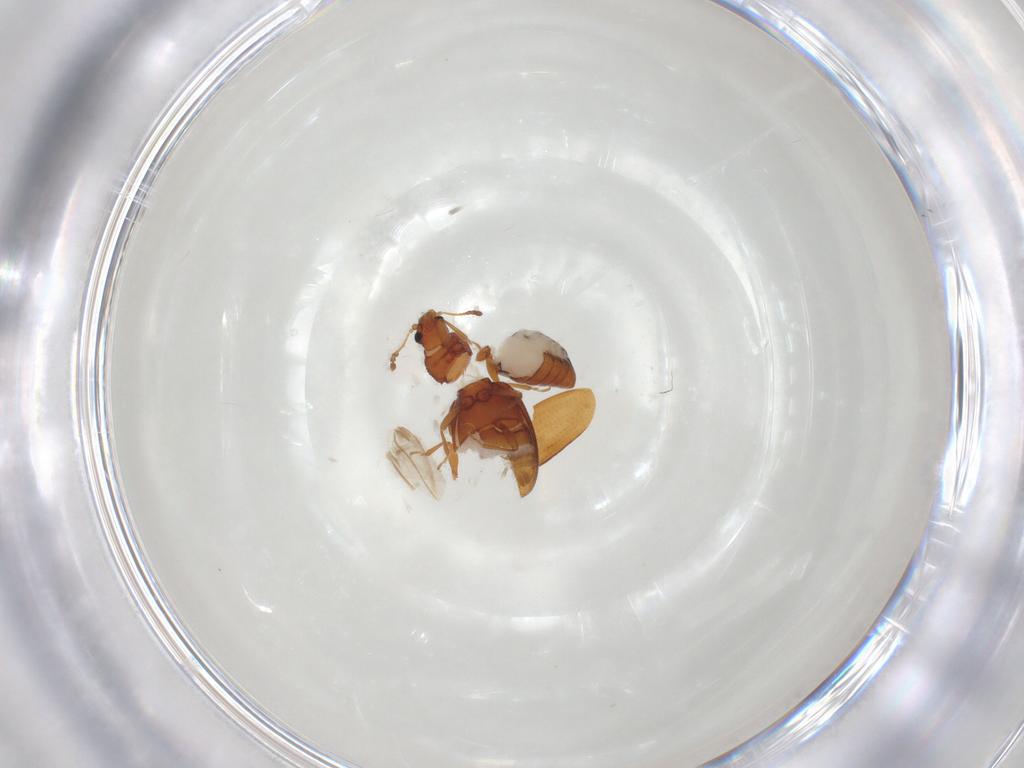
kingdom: Animalia
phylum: Arthropoda
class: Insecta
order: Coleoptera
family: Latridiidae
